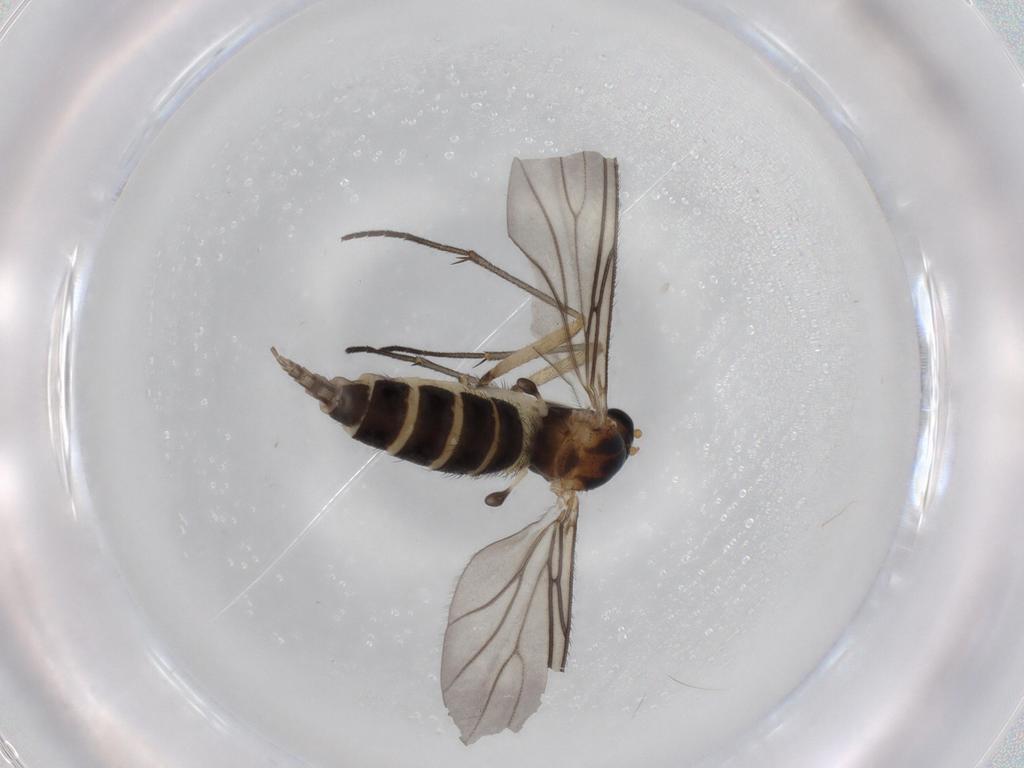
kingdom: Animalia
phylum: Arthropoda
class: Insecta
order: Diptera
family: Sciaridae
